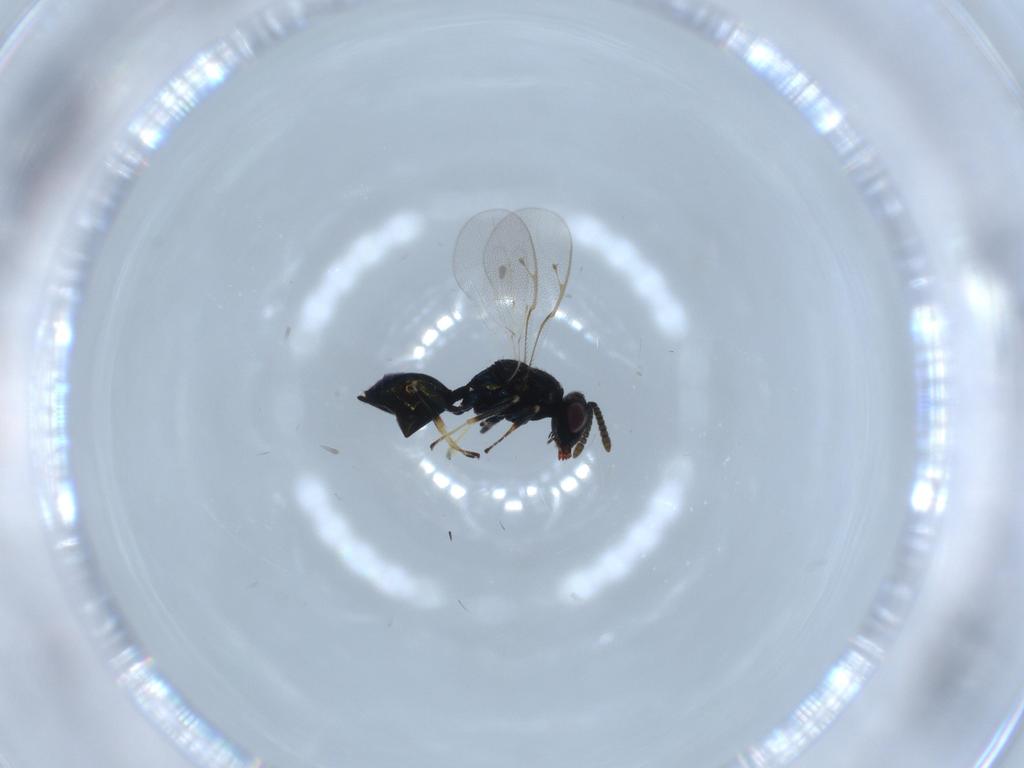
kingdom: Animalia
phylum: Arthropoda
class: Insecta
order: Hymenoptera
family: Pteromalidae
